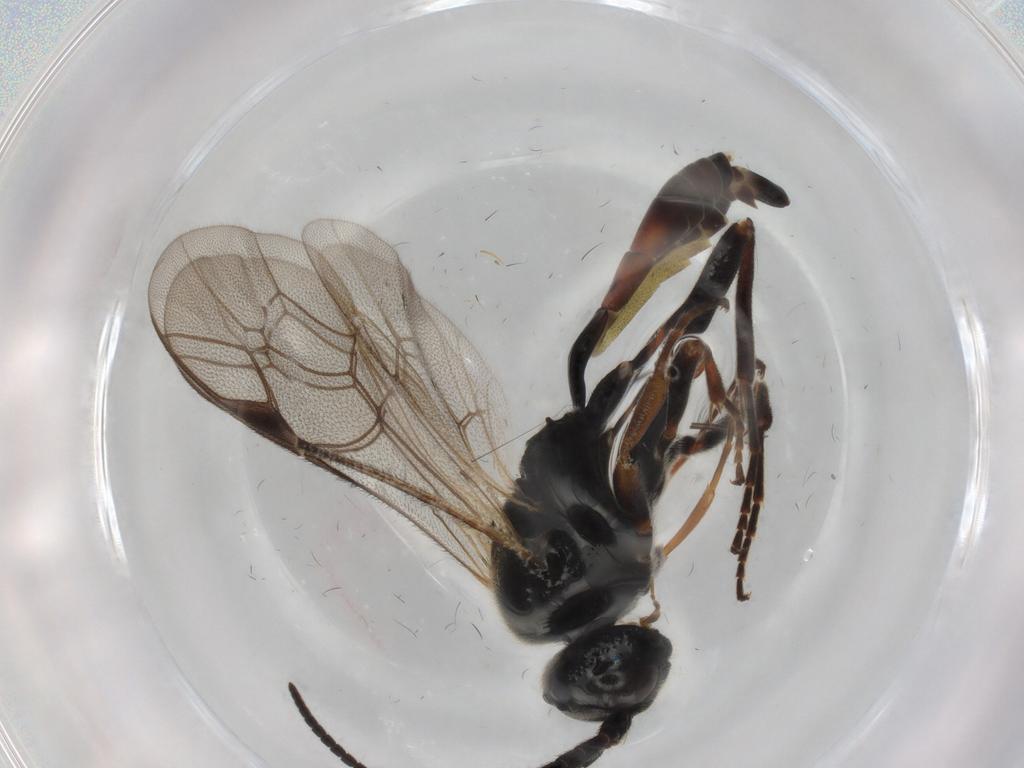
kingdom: Animalia
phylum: Arthropoda
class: Insecta
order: Hymenoptera
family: Ichneumonidae
